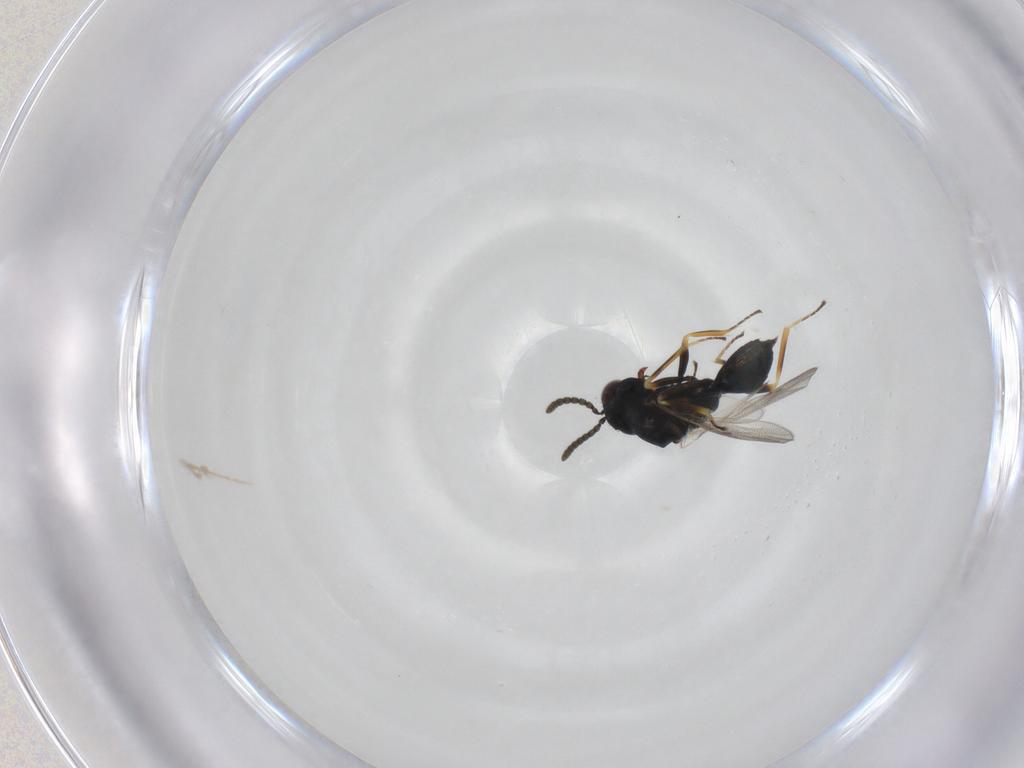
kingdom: Animalia
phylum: Arthropoda
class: Insecta
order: Hymenoptera
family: Pteromalidae
